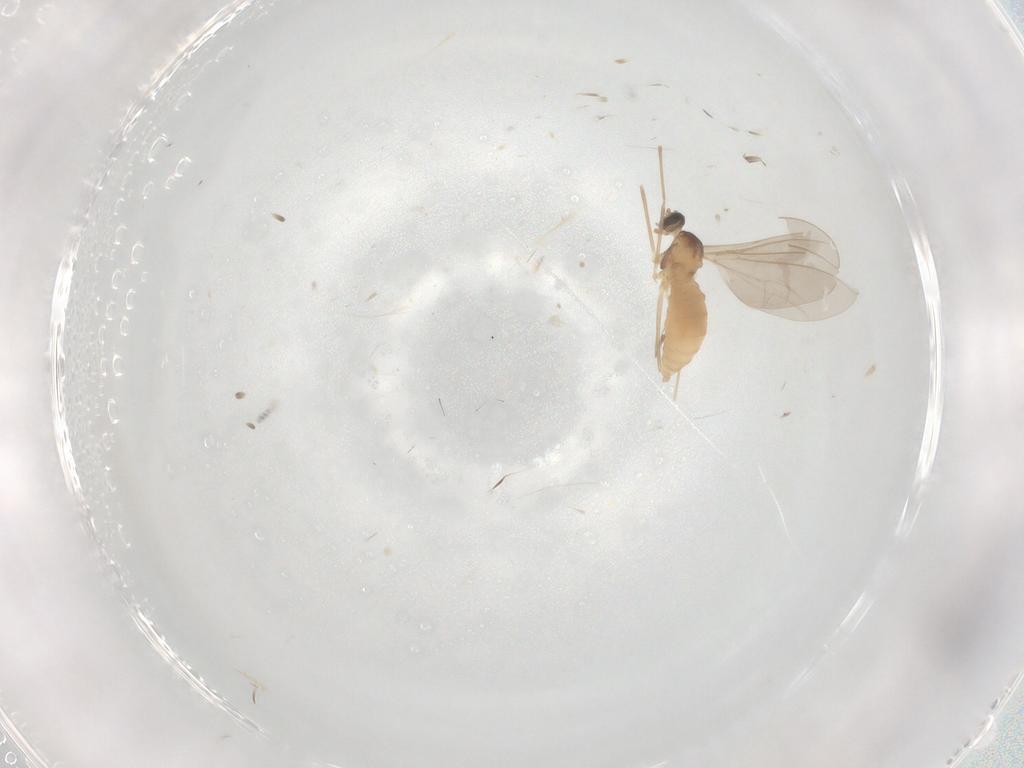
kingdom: Animalia
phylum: Arthropoda
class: Insecta
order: Diptera
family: Cecidomyiidae
